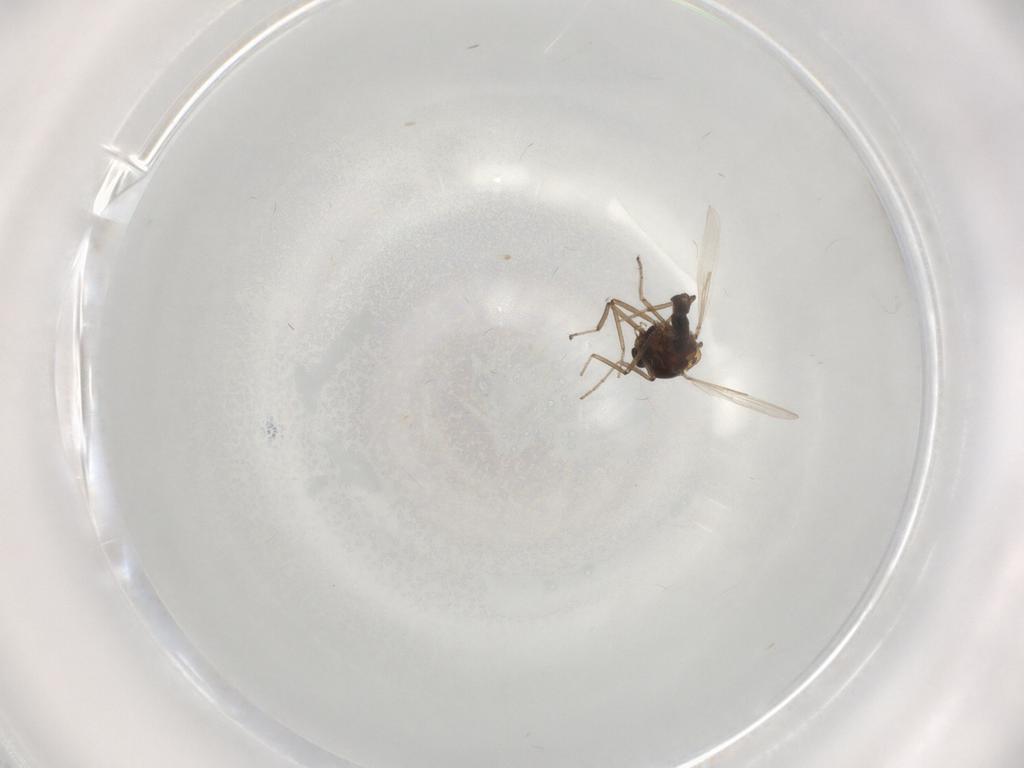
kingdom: Animalia
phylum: Arthropoda
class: Insecta
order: Diptera
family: Ceratopogonidae
